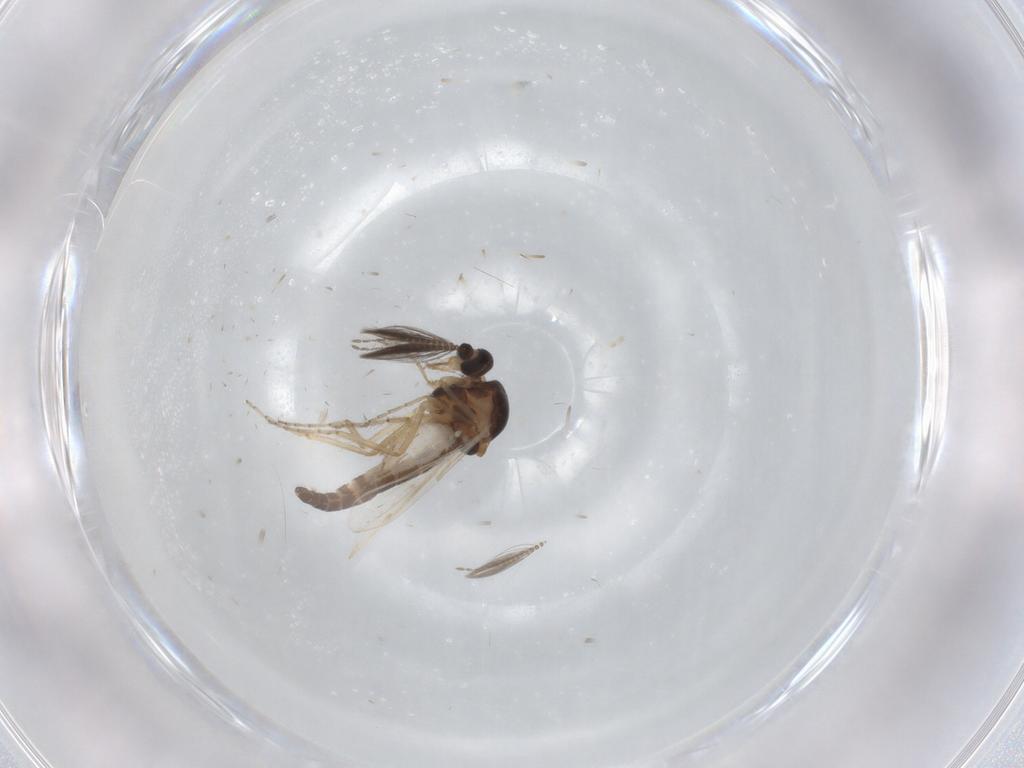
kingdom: Animalia
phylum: Arthropoda
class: Insecta
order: Diptera
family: Ceratopogonidae
